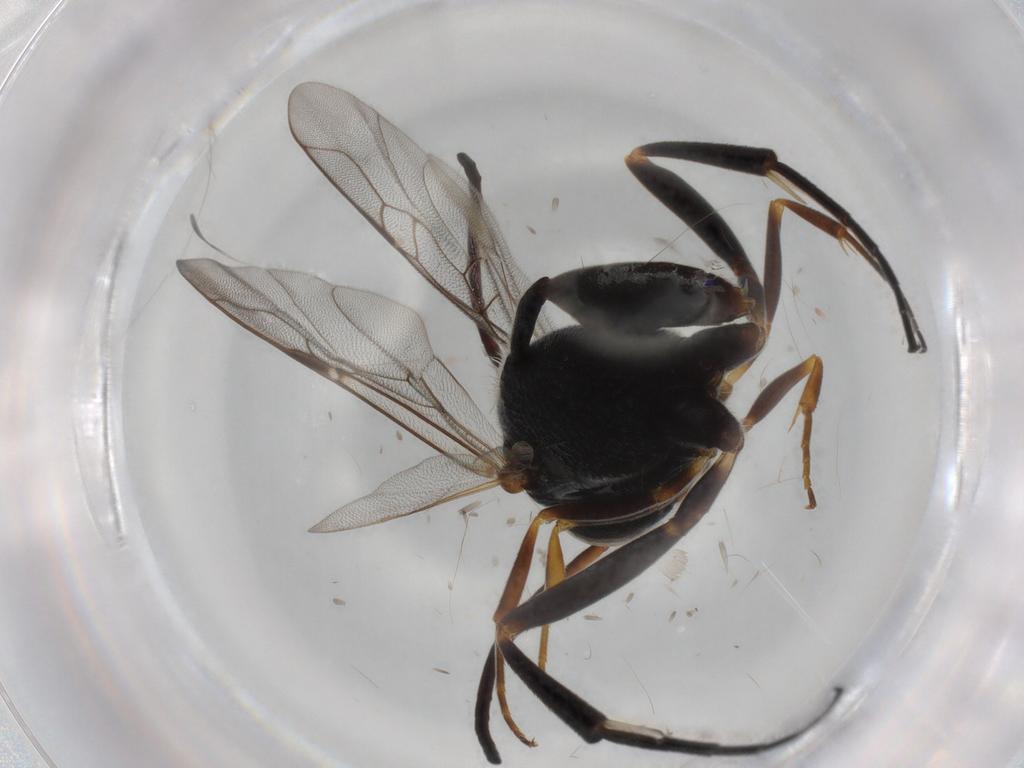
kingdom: Animalia
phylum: Arthropoda
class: Insecta
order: Hymenoptera
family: Evaniidae
